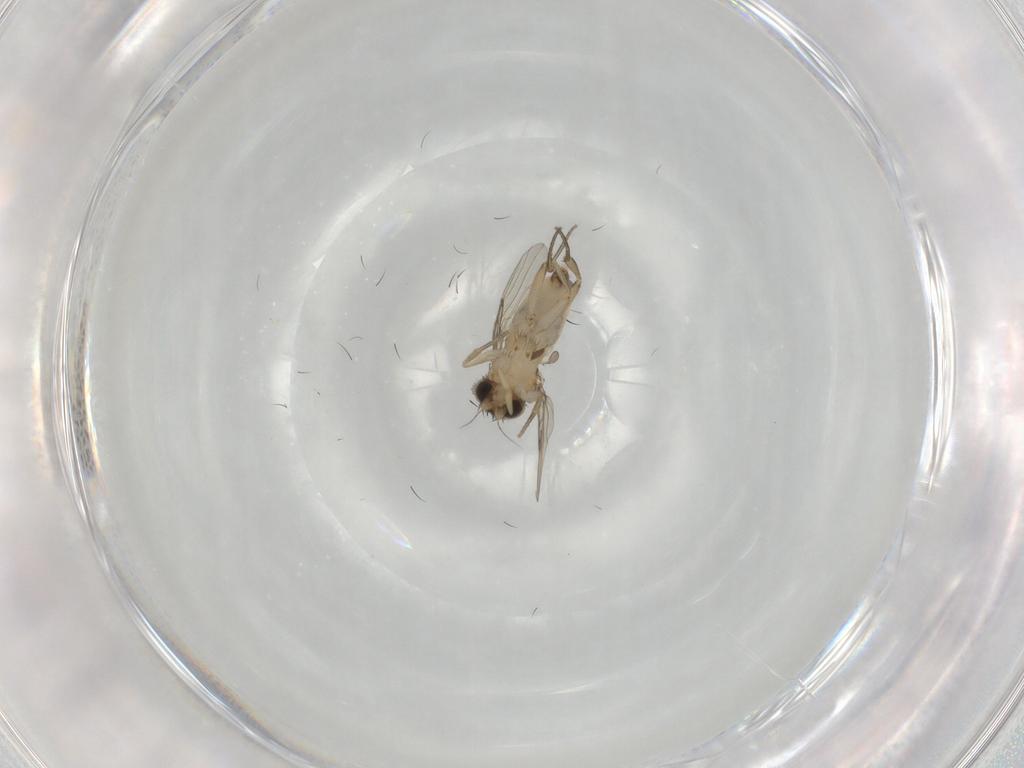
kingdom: Animalia
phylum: Arthropoda
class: Insecta
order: Diptera
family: Phoridae
